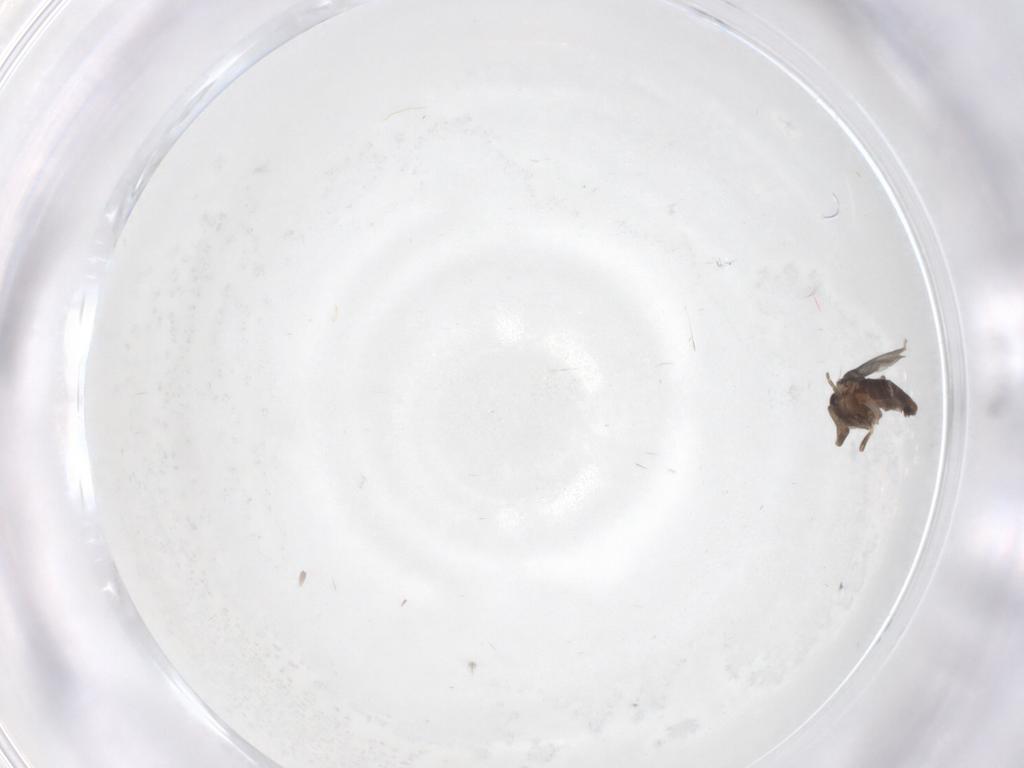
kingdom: Animalia
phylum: Arthropoda
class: Insecta
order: Diptera
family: Chironomidae
